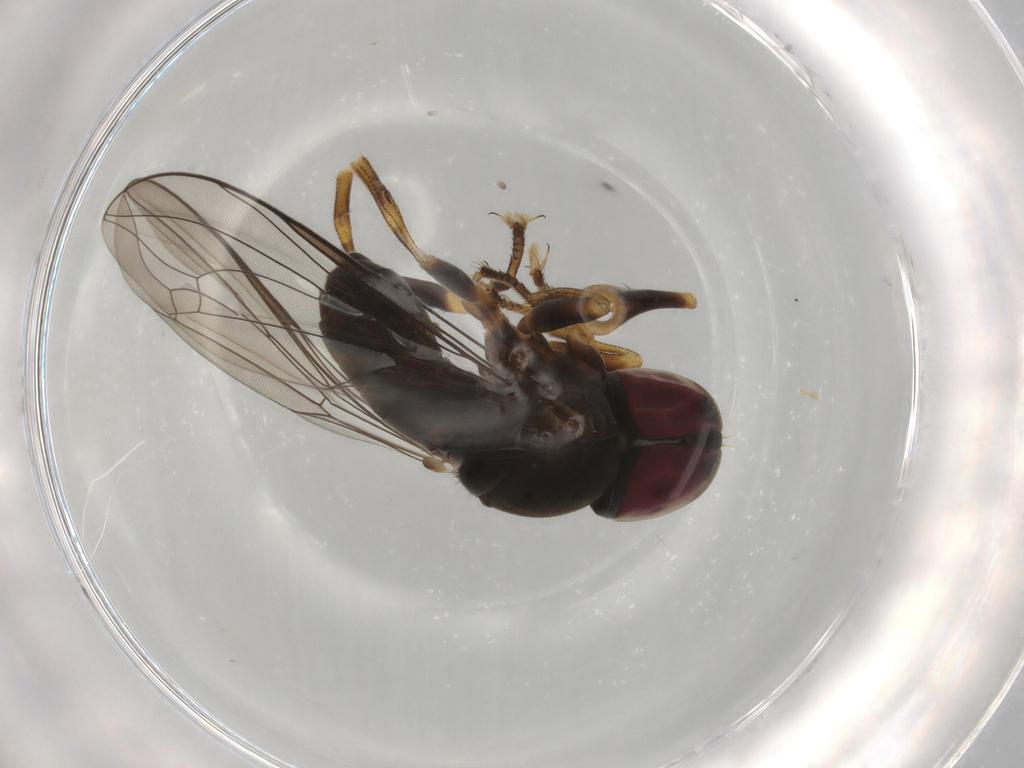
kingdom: Animalia
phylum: Arthropoda
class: Insecta
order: Diptera
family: Pipunculidae
